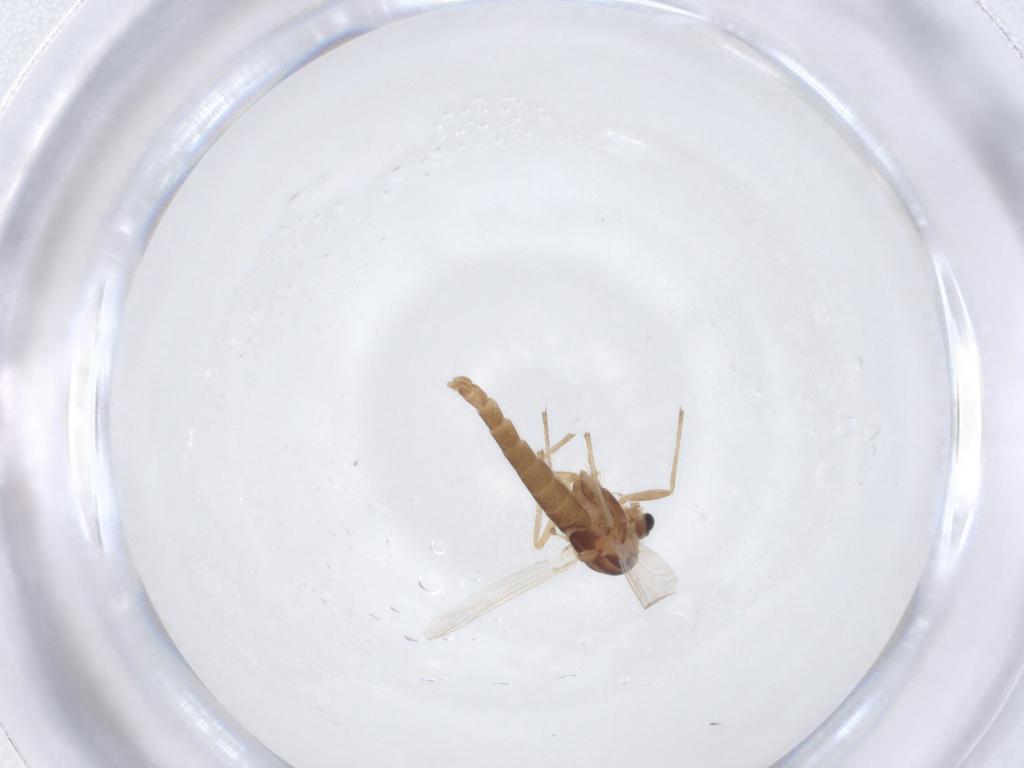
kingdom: Animalia
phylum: Arthropoda
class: Insecta
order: Diptera
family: Chironomidae
